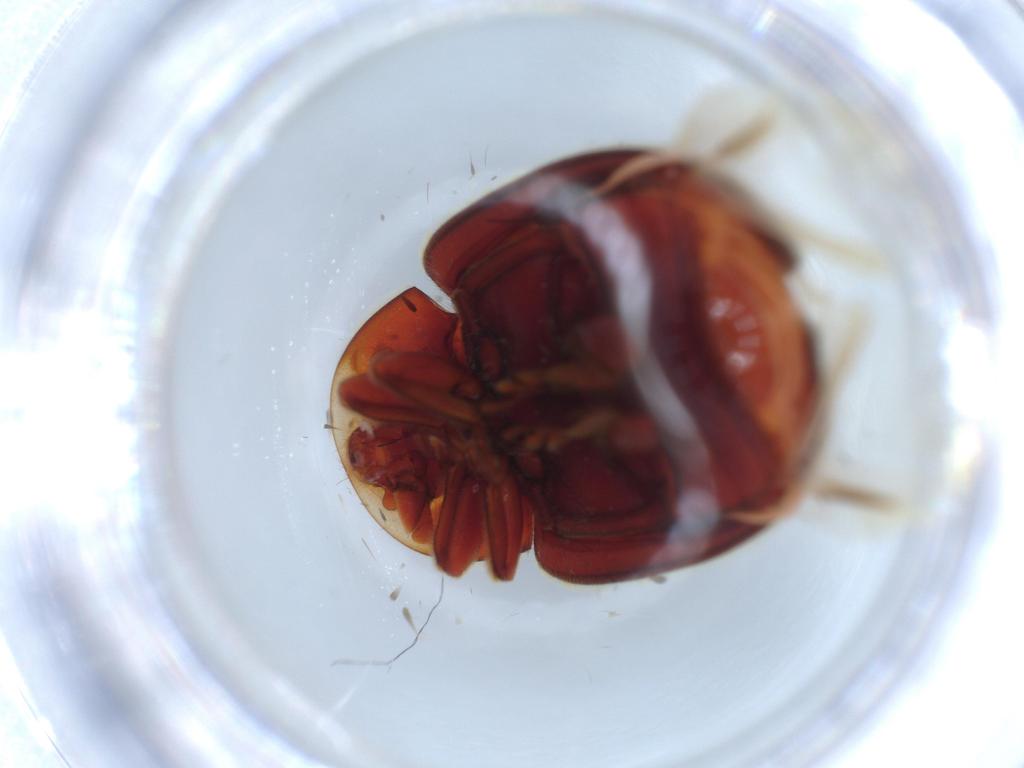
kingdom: Animalia
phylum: Arthropoda
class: Insecta
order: Coleoptera
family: Coccinellidae
